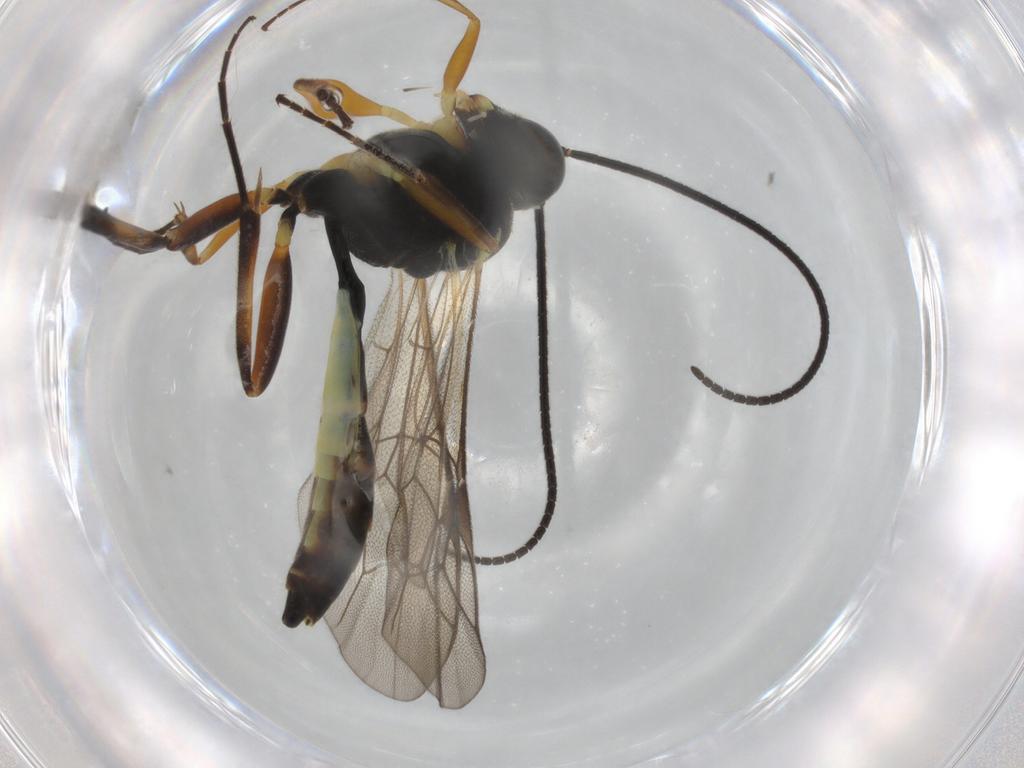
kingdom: Animalia
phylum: Arthropoda
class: Insecta
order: Hymenoptera
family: Ichneumonidae
